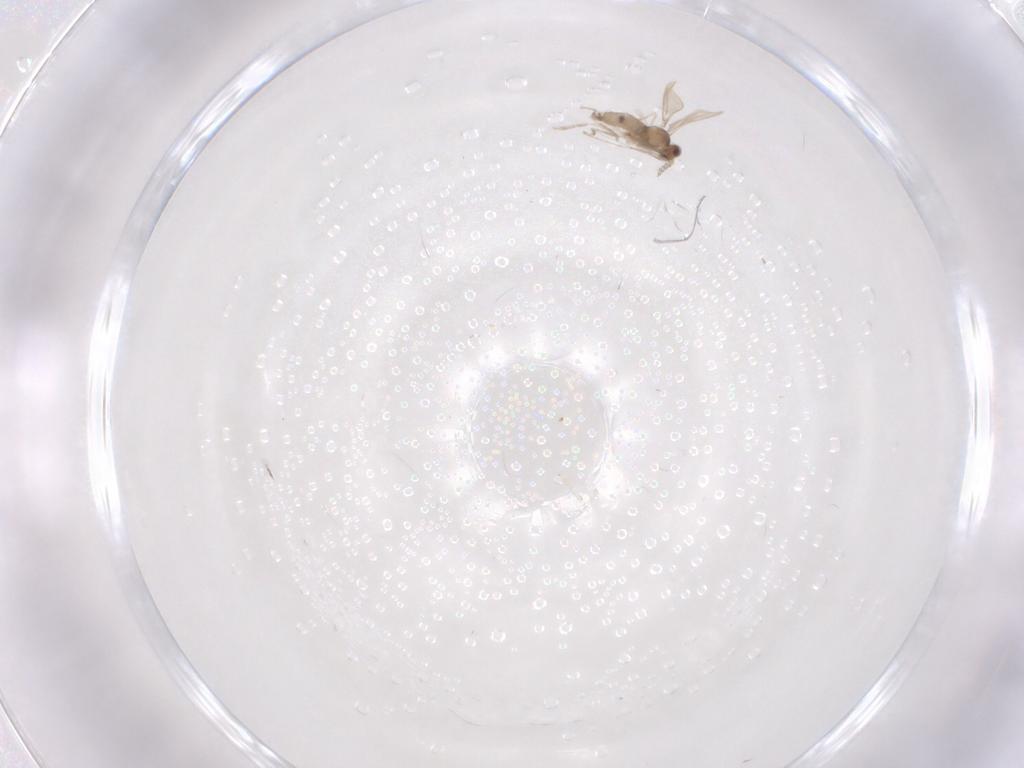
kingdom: Animalia
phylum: Arthropoda
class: Insecta
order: Diptera
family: Cecidomyiidae
